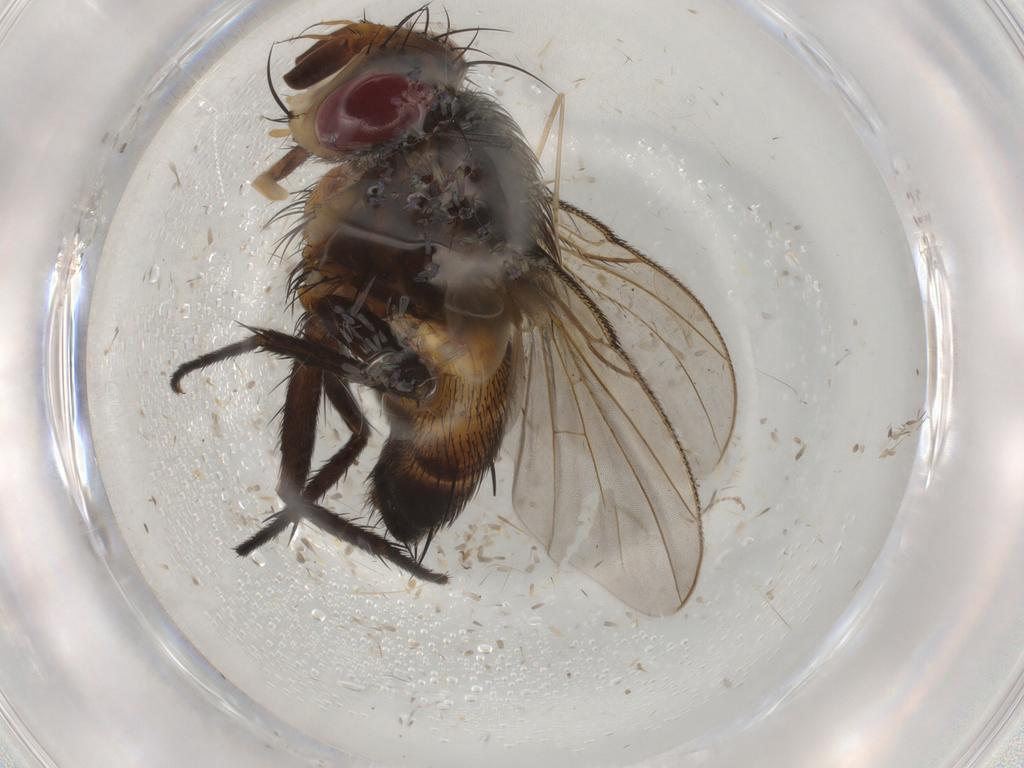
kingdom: Animalia
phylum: Arthropoda
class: Insecta
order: Diptera
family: Tachinidae
